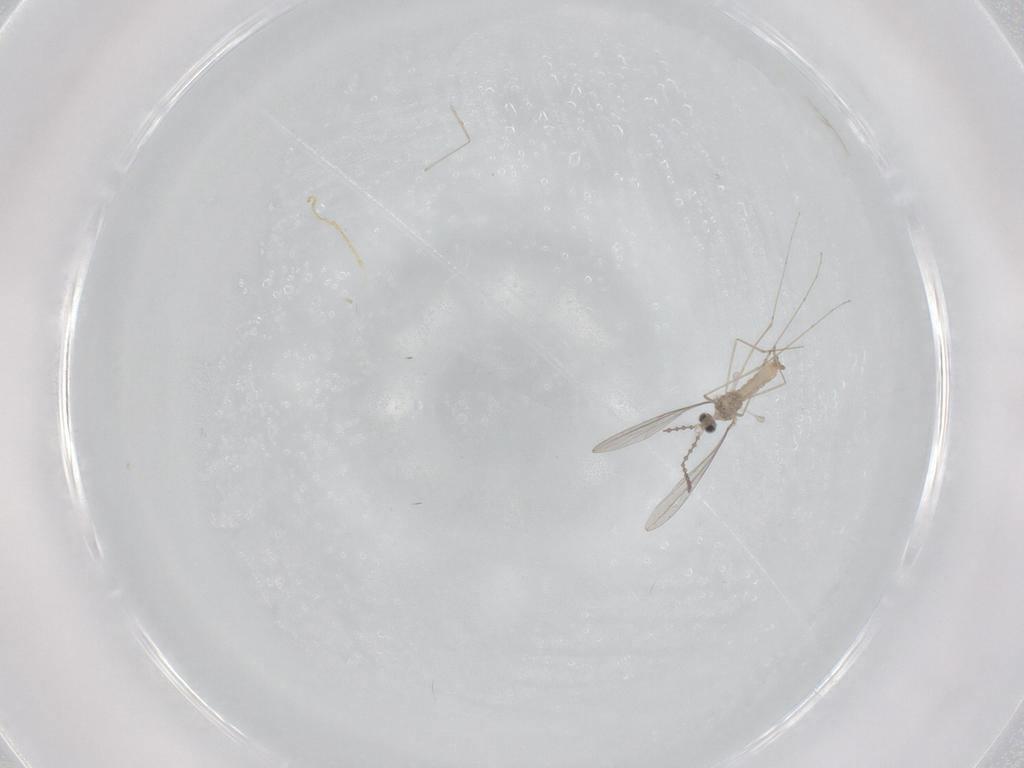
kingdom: Animalia
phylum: Arthropoda
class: Insecta
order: Diptera
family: Cecidomyiidae
